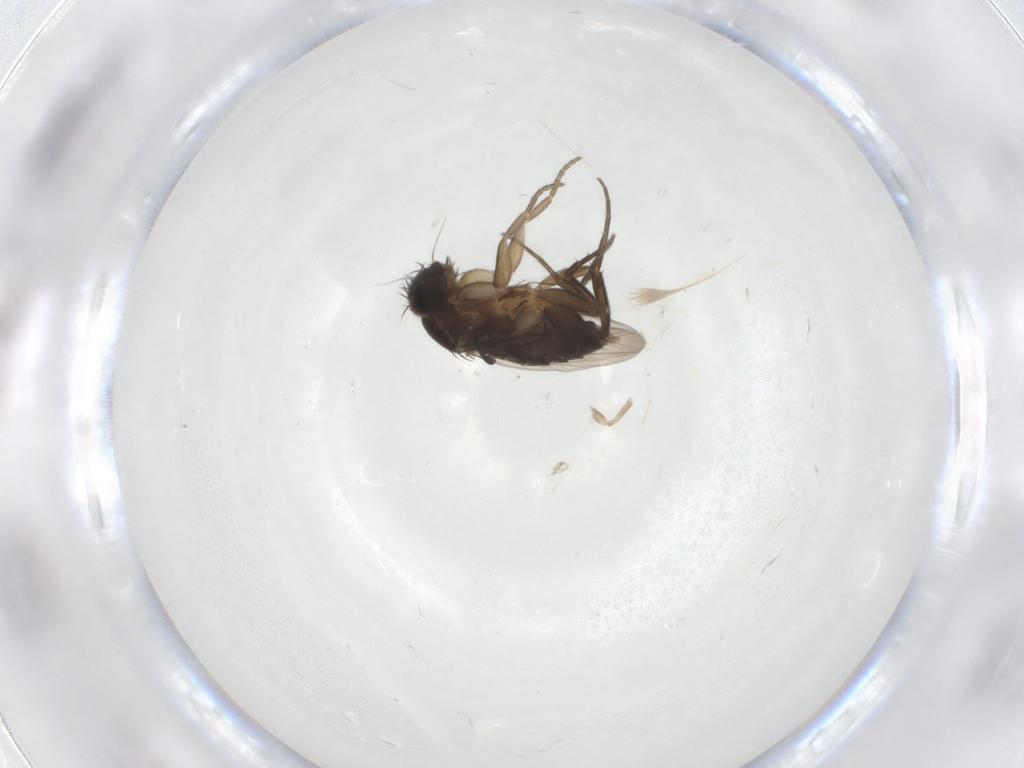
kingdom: Animalia
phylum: Arthropoda
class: Insecta
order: Diptera
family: Phoridae
